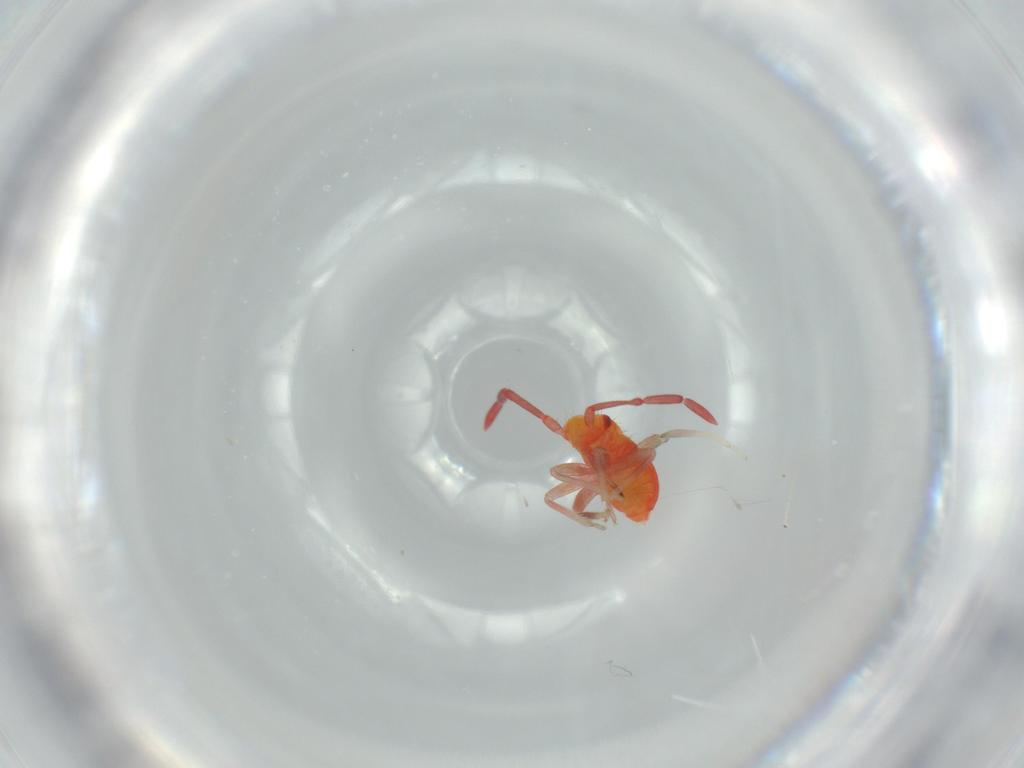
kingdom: Animalia
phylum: Arthropoda
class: Insecta
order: Hemiptera
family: Miridae
